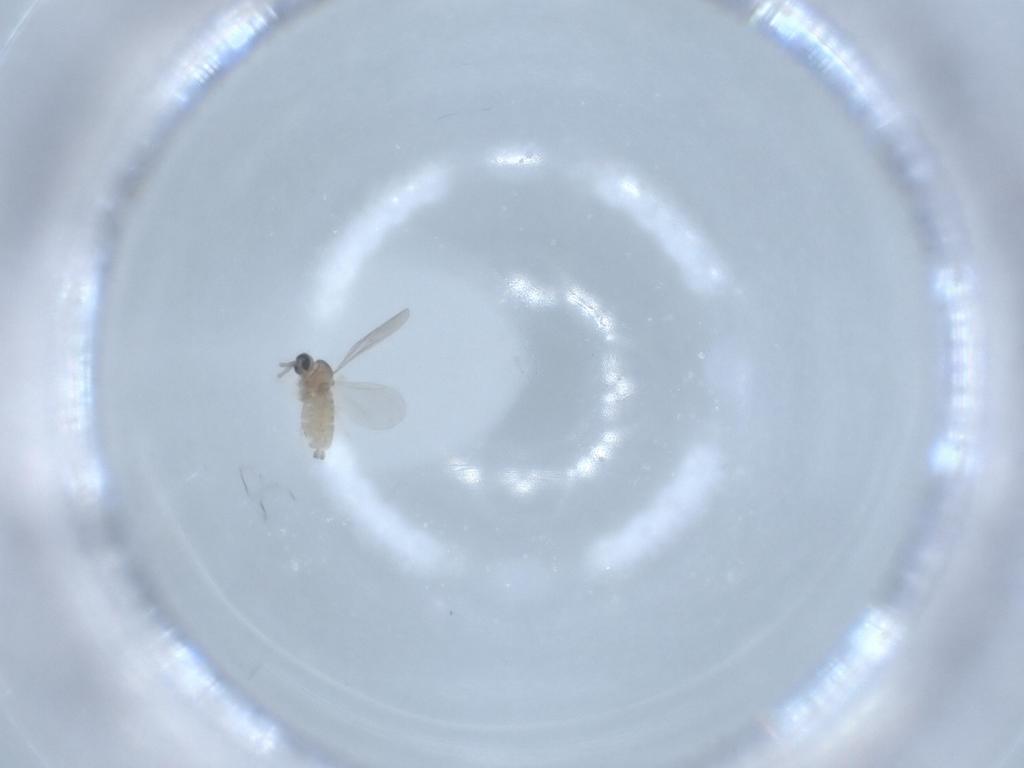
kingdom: Animalia
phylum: Arthropoda
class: Insecta
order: Diptera
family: Cecidomyiidae
